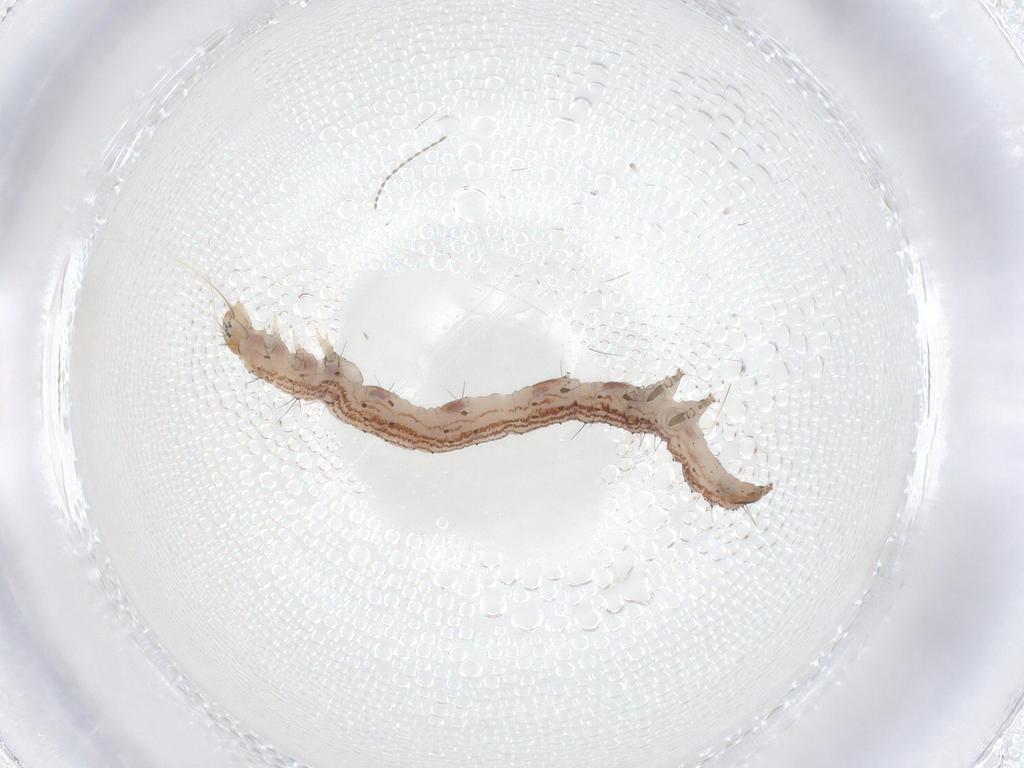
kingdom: Animalia
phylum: Arthropoda
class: Insecta
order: Lepidoptera
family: Erebidae
